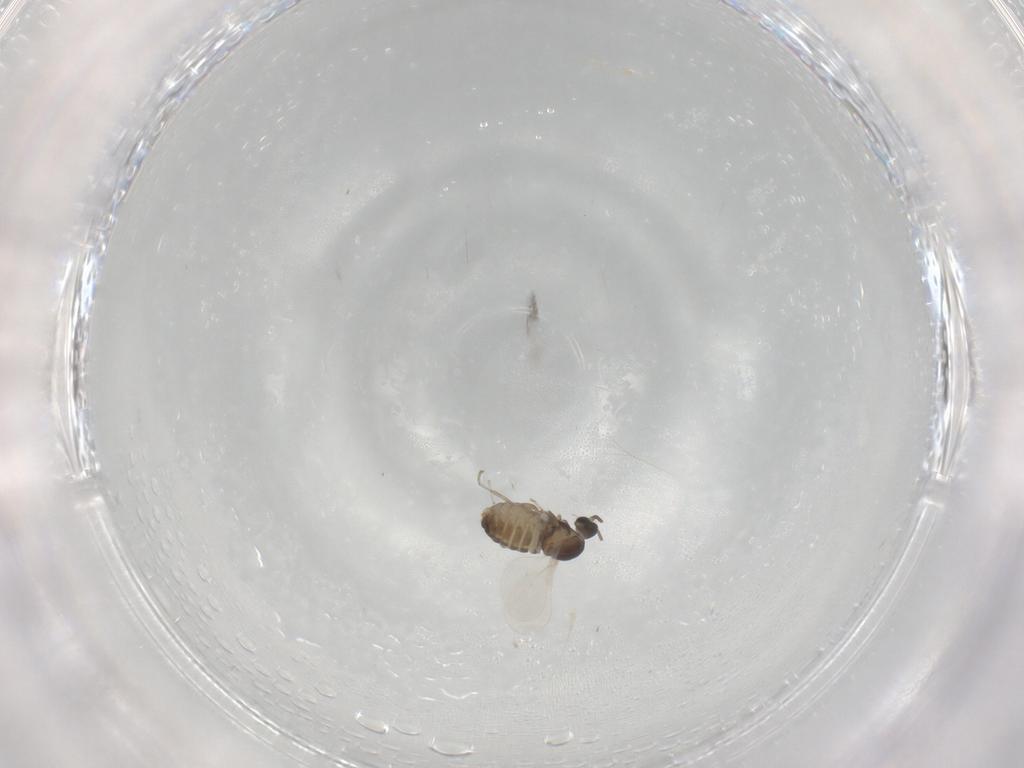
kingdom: Animalia
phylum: Arthropoda
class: Insecta
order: Diptera
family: Cecidomyiidae
